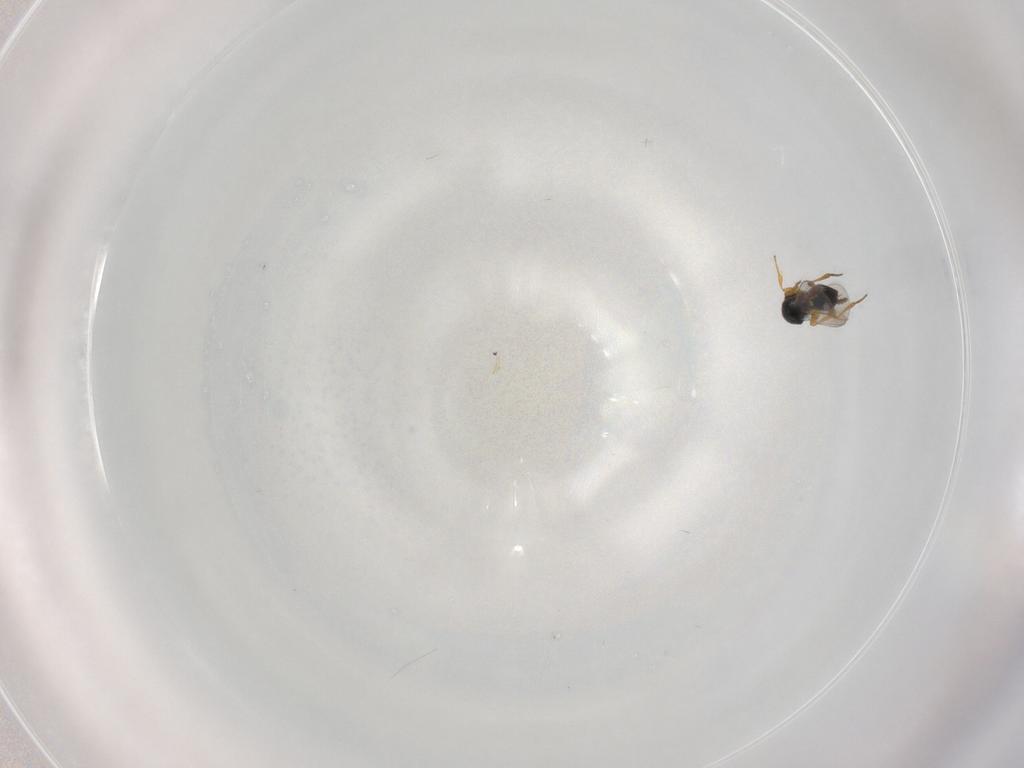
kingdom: Animalia
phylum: Arthropoda
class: Insecta
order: Hymenoptera
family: Platygastridae
